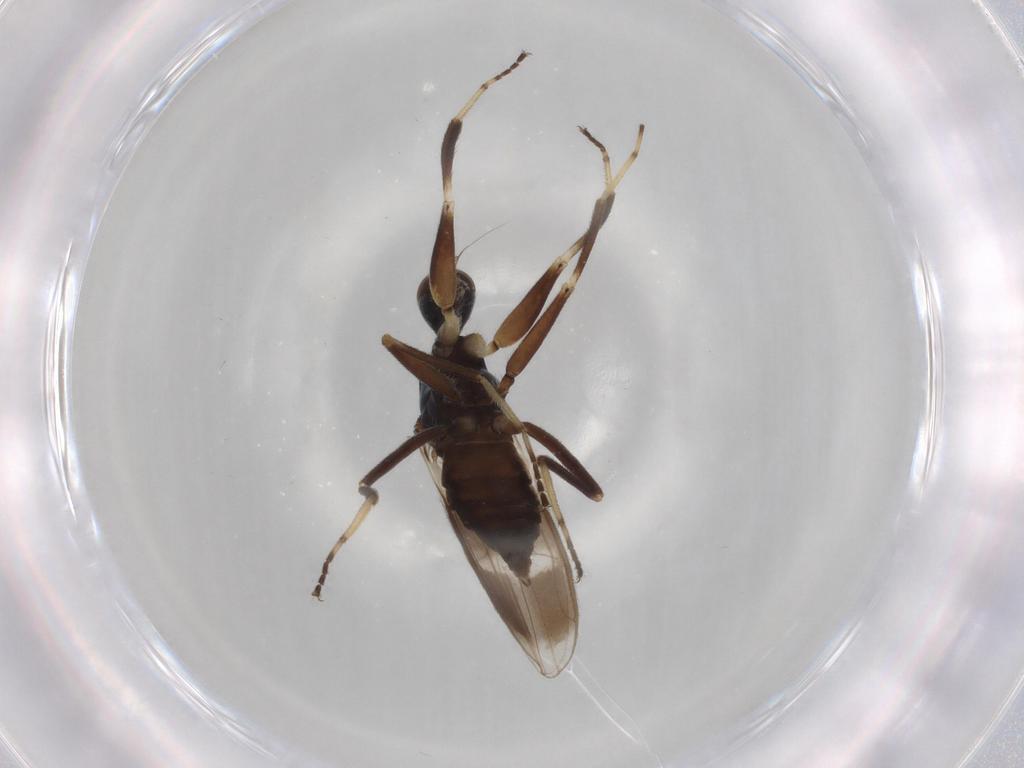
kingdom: Animalia
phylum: Arthropoda
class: Insecta
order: Diptera
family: Hybotidae
